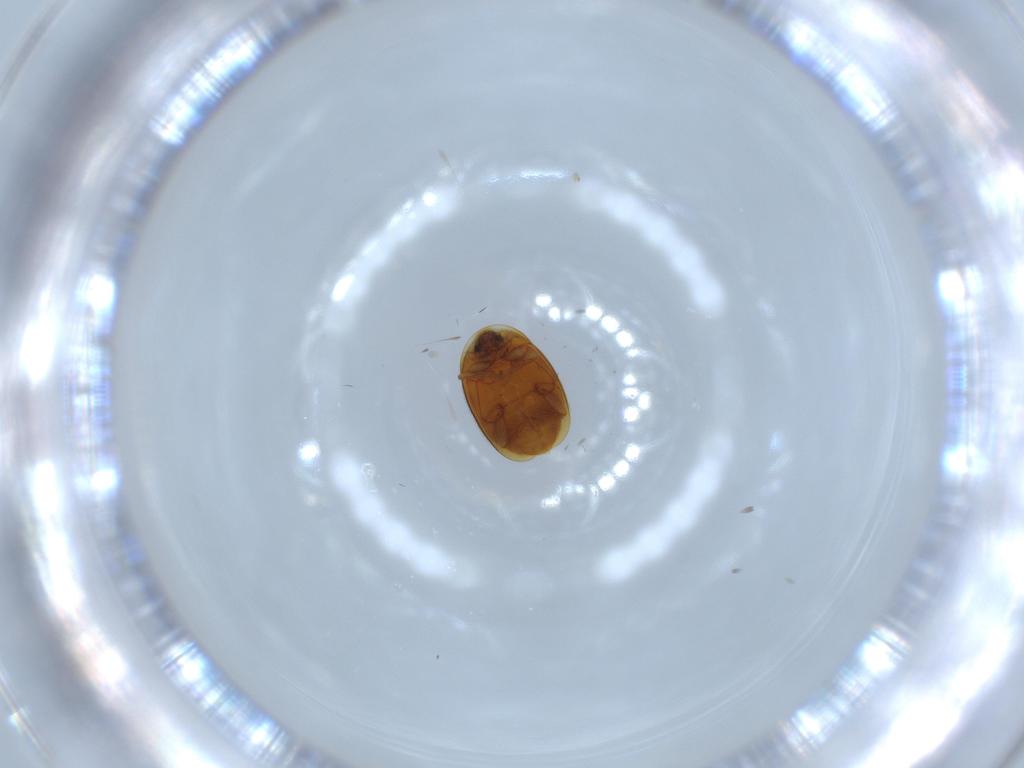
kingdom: Animalia
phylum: Arthropoda
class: Insecta
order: Coleoptera
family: Corylophidae
